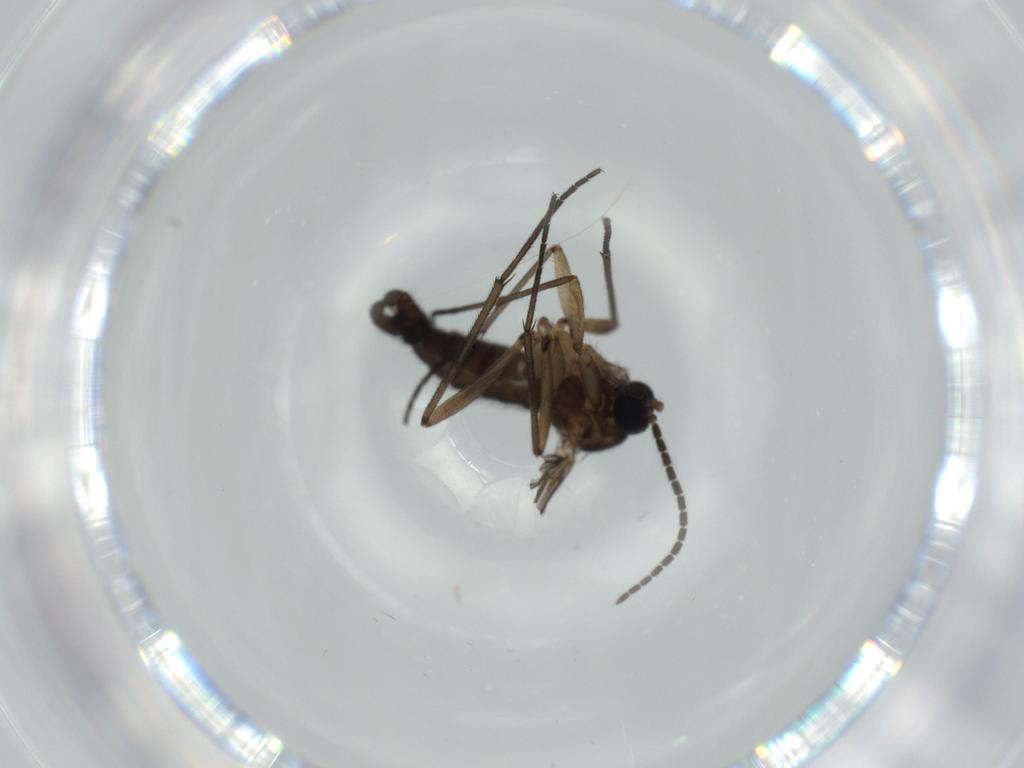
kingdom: Animalia
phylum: Arthropoda
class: Insecta
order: Diptera
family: Sciaridae
